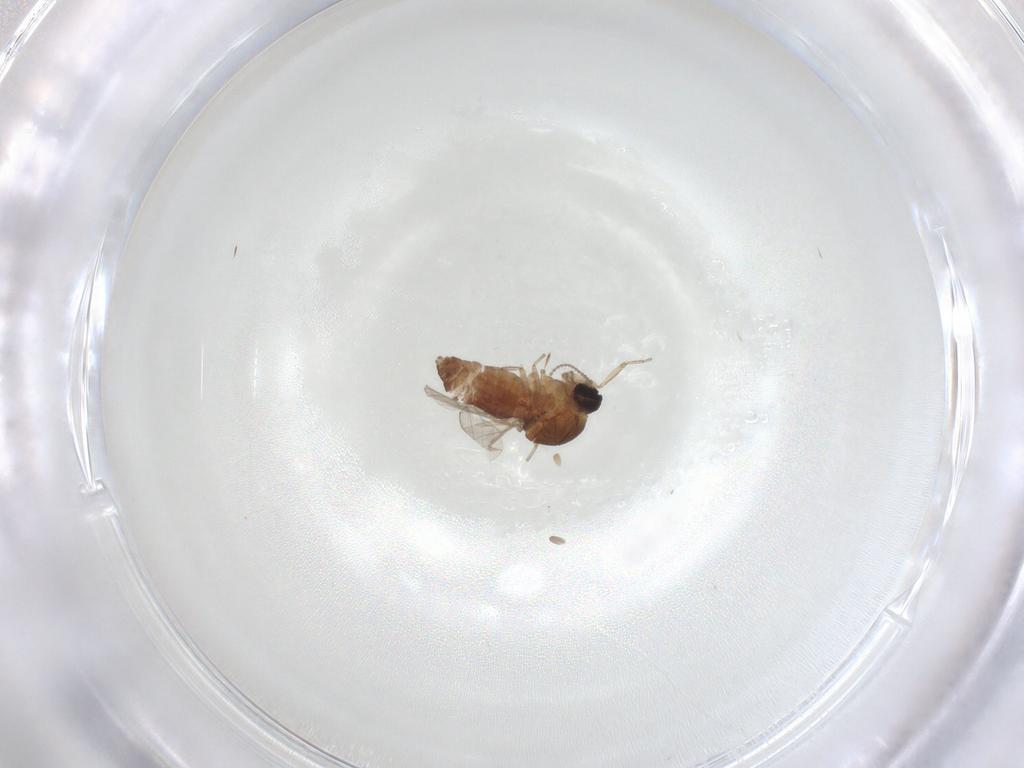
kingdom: Animalia
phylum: Arthropoda
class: Insecta
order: Diptera
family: Ceratopogonidae
